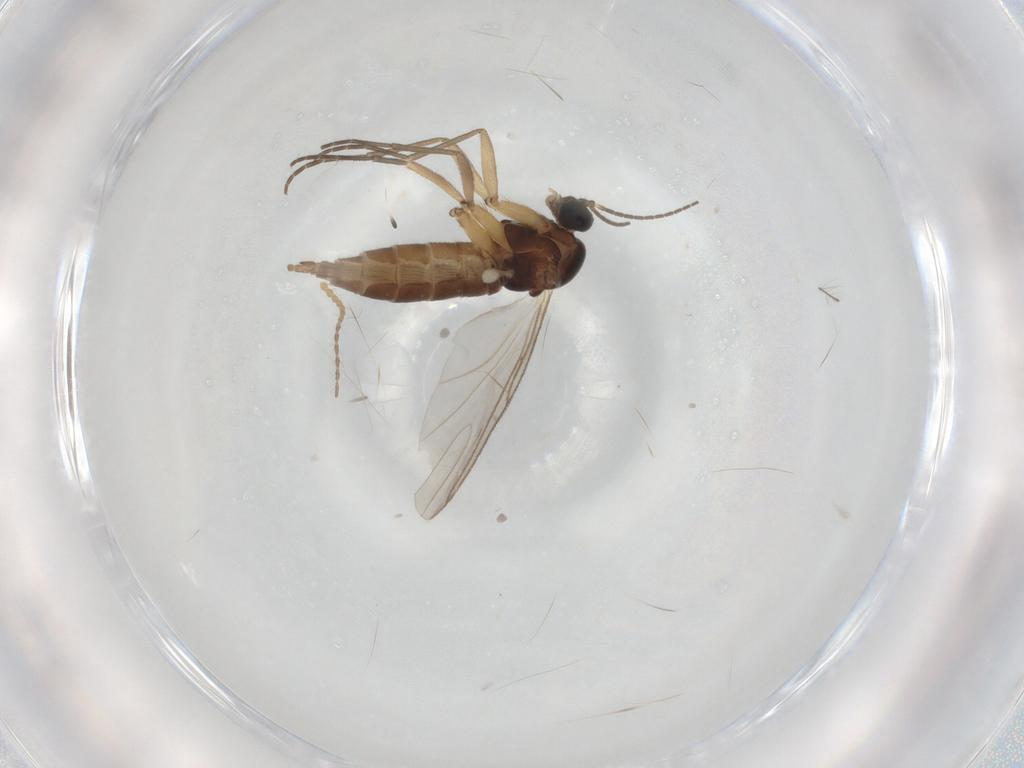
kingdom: Animalia
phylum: Arthropoda
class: Insecta
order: Diptera
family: Sciaridae
